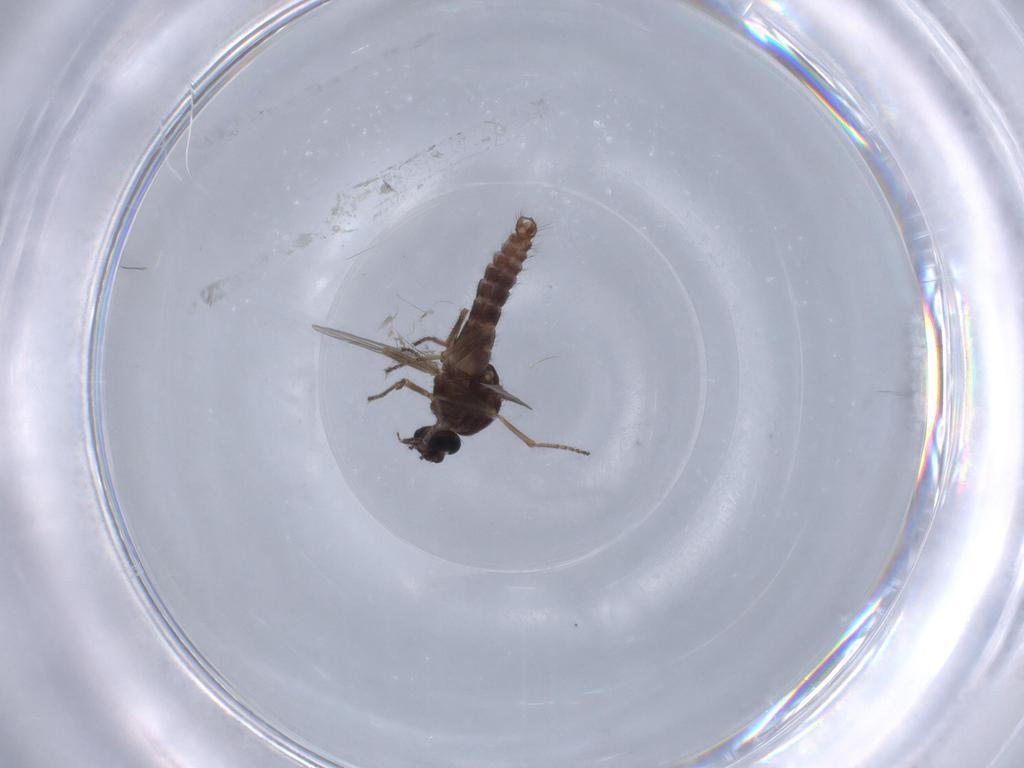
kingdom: Animalia
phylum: Arthropoda
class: Insecta
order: Diptera
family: Ceratopogonidae
